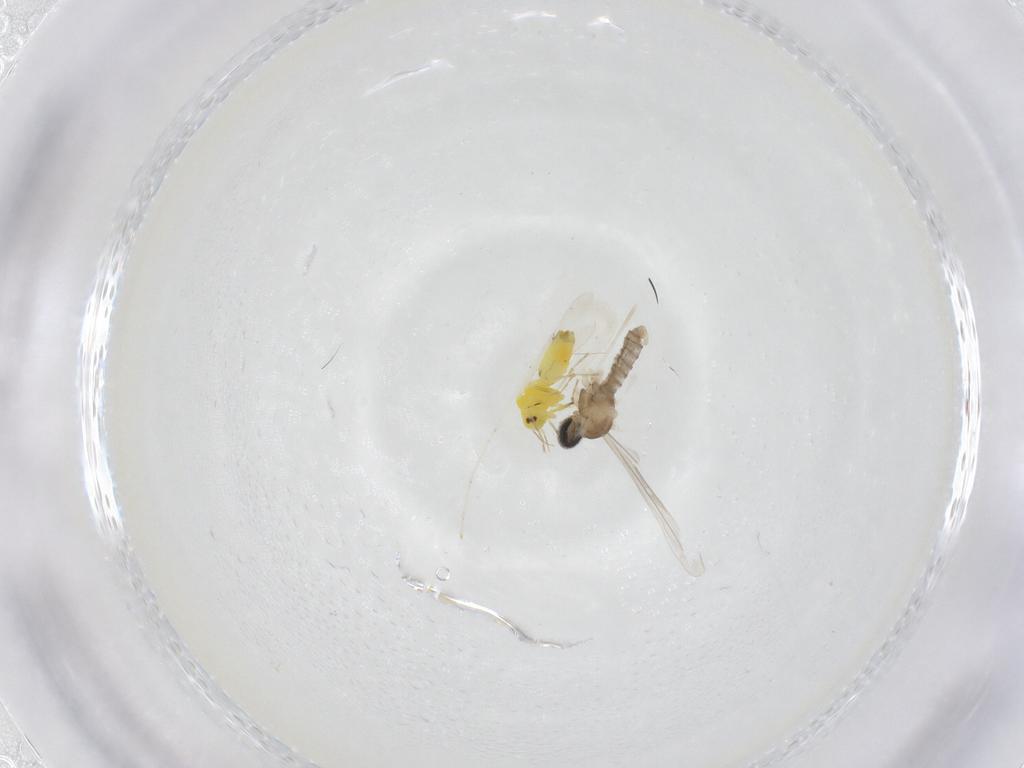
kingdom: Animalia
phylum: Arthropoda
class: Insecta
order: Diptera
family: Cecidomyiidae
